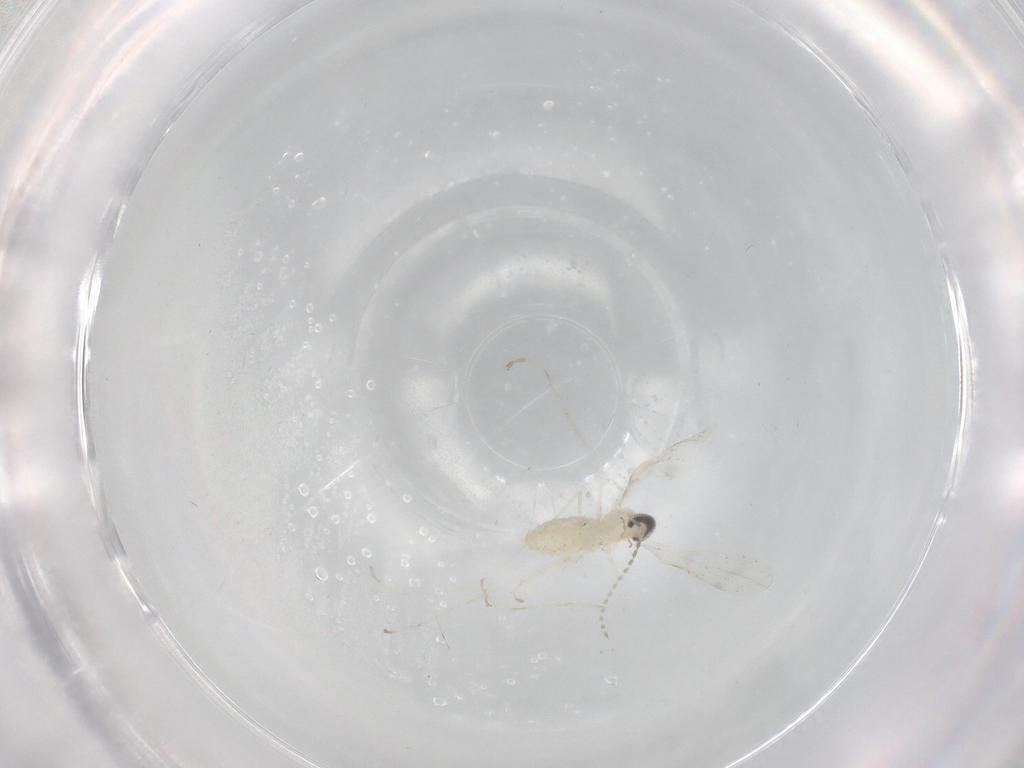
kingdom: Animalia
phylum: Arthropoda
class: Insecta
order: Diptera
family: Cecidomyiidae
